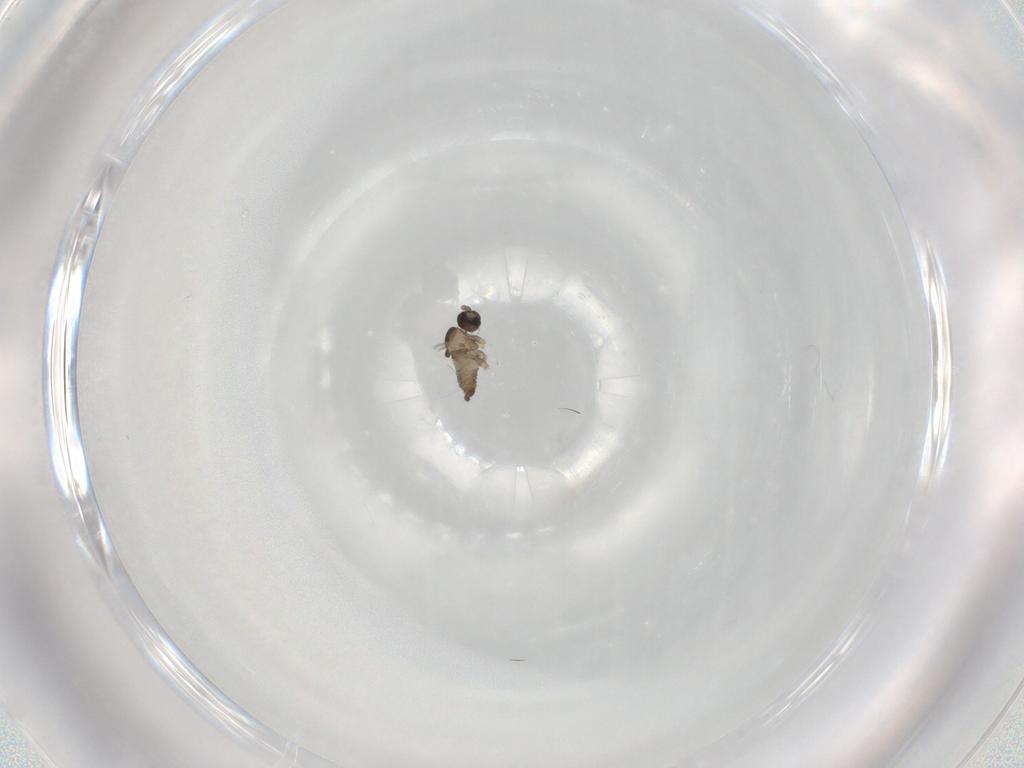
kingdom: Animalia
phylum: Arthropoda
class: Insecta
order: Diptera
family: Cecidomyiidae
